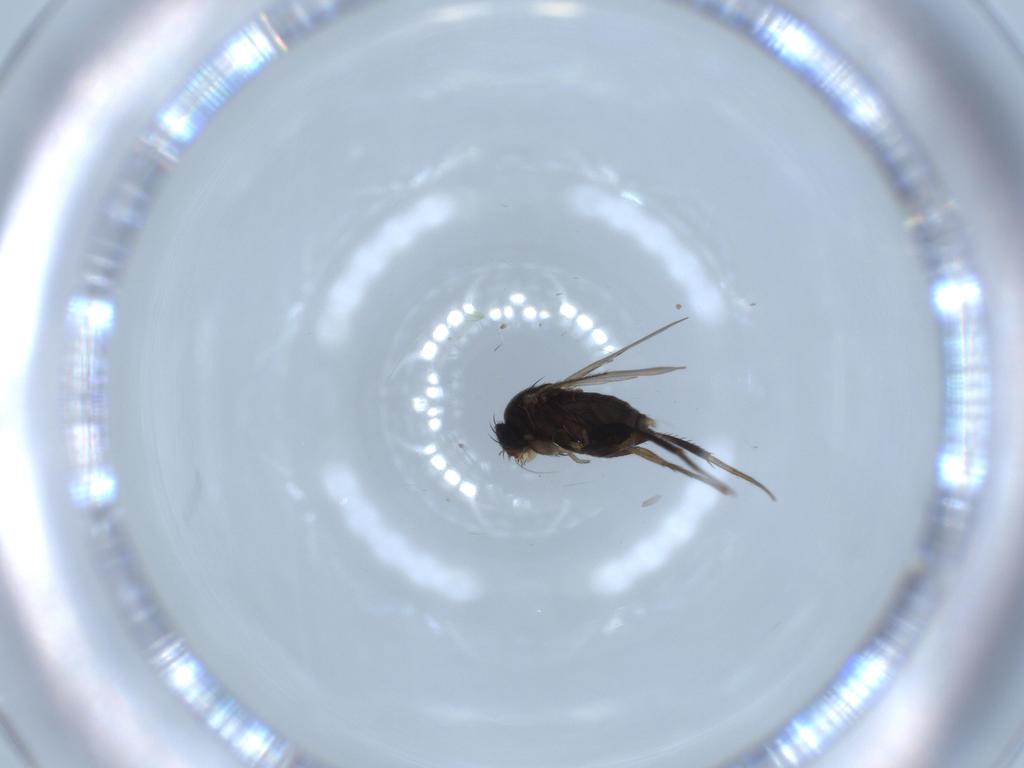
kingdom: Animalia
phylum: Arthropoda
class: Insecta
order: Diptera
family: Phoridae
